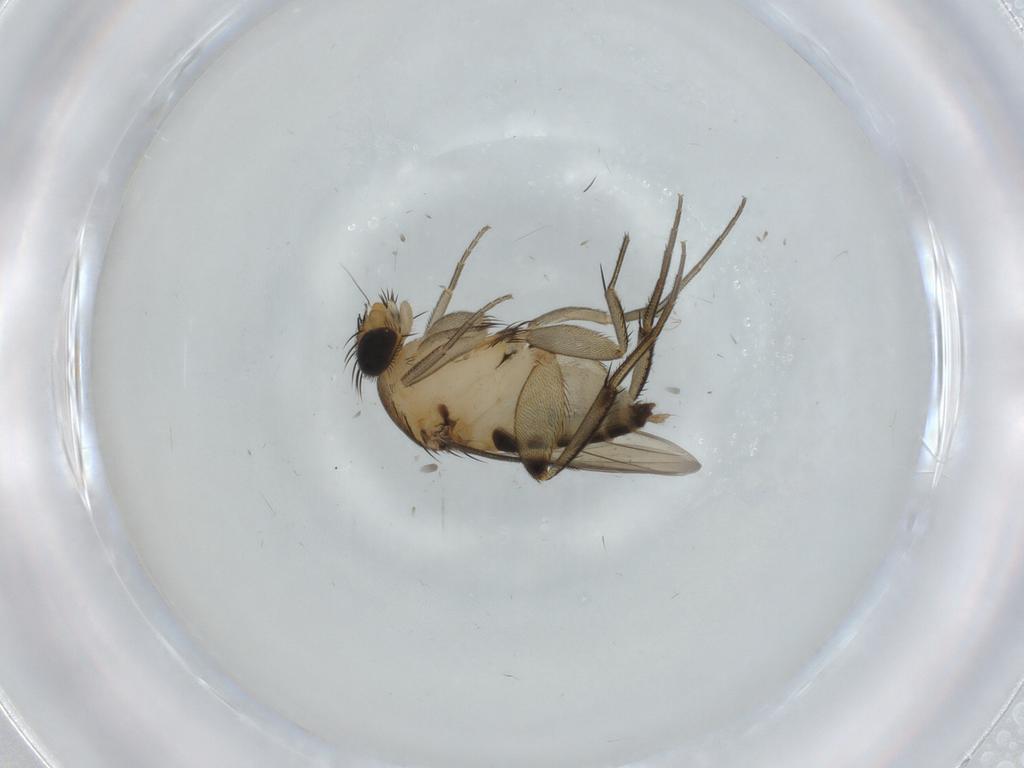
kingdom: Animalia
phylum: Arthropoda
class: Insecta
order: Diptera
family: Phoridae
